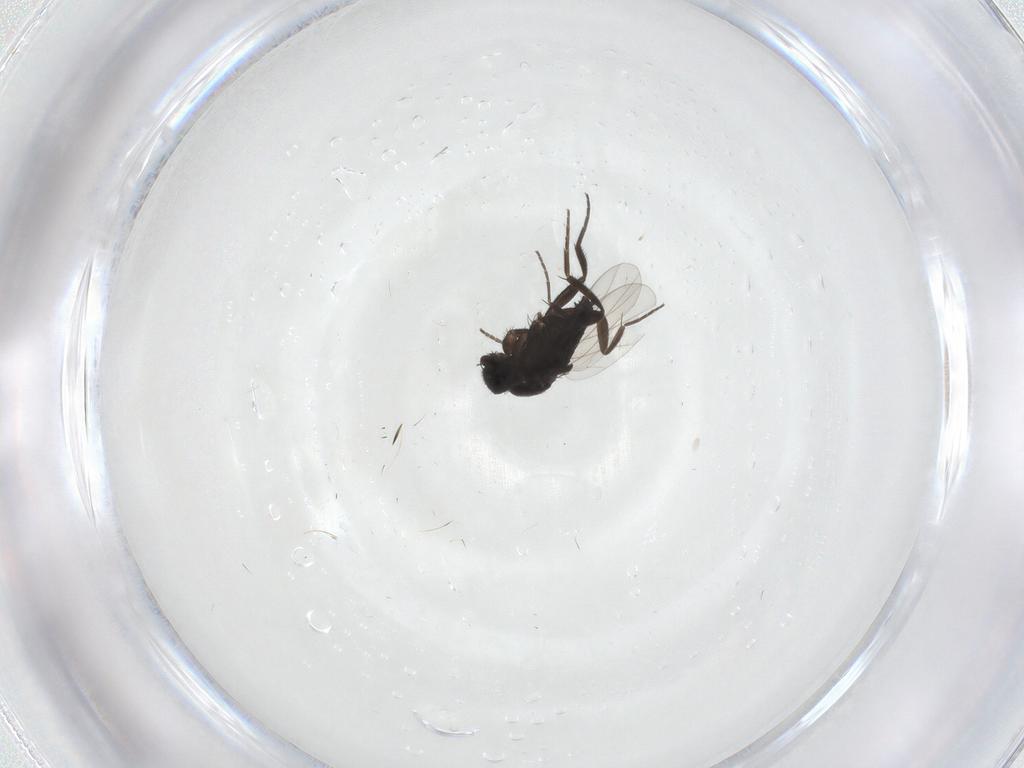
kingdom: Animalia
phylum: Arthropoda
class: Insecta
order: Diptera
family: Phoridae
